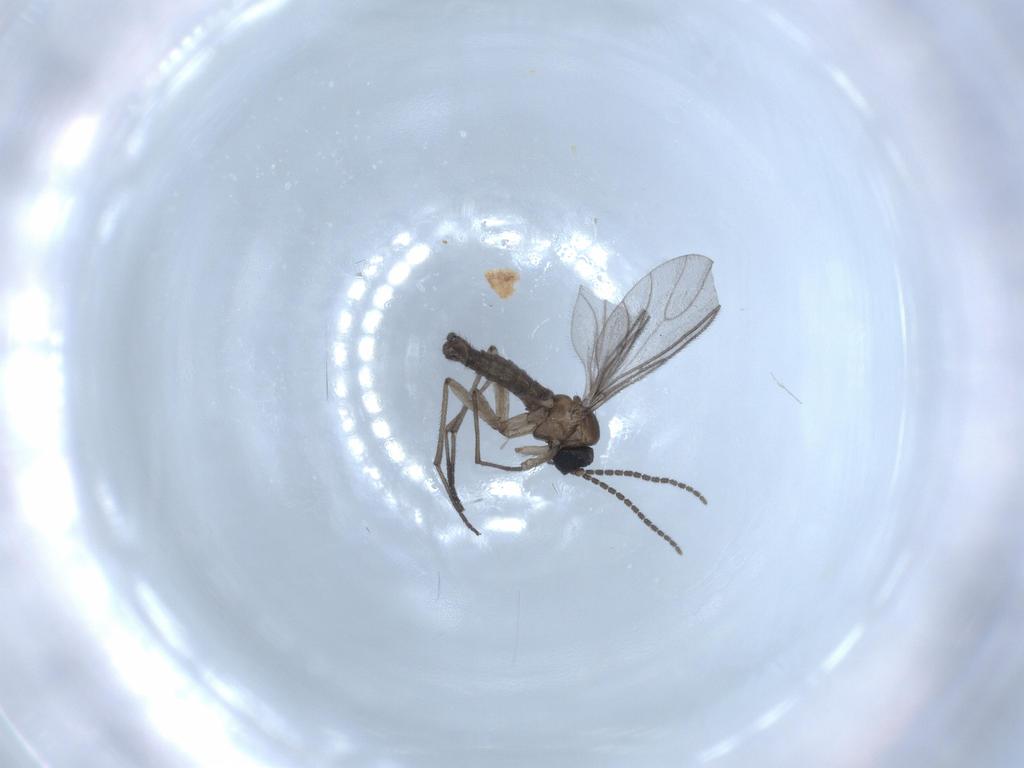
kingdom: Animalia
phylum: Arthropoda
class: Insecta
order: Diptera
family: Sciaridae
